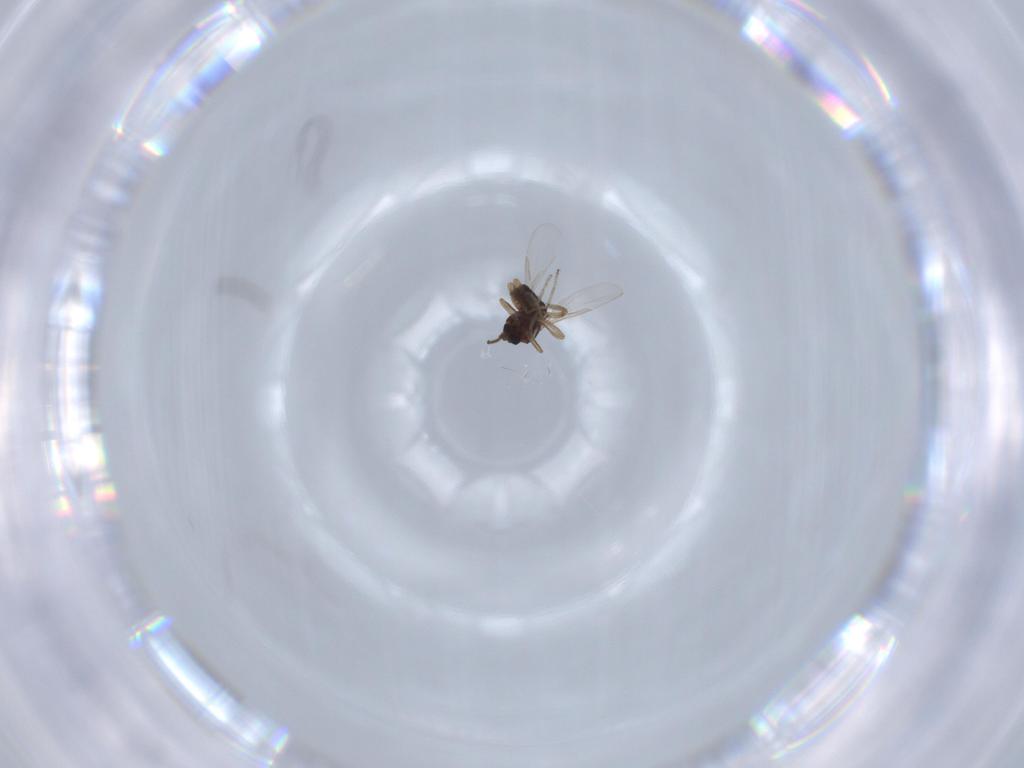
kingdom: Animalia
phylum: Arthropoda
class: Insecta
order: Diptera
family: Ceratopogonidae
